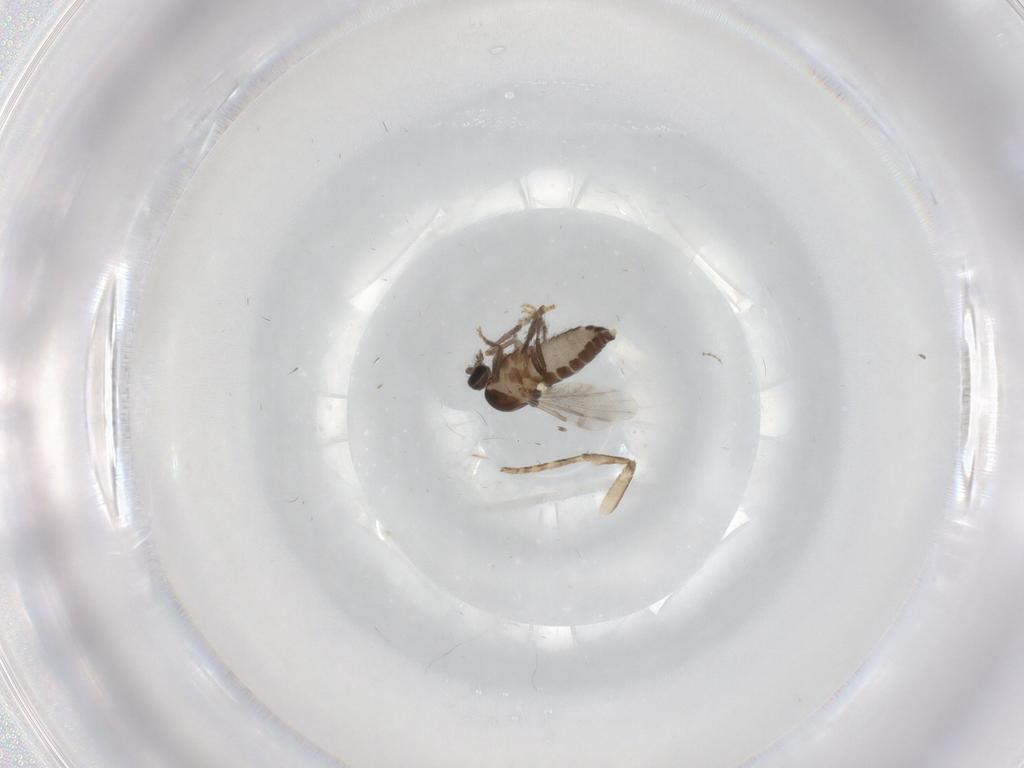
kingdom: Animalia
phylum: Arthropoda
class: Insecta
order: Diptera
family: Ceratopogonidae
